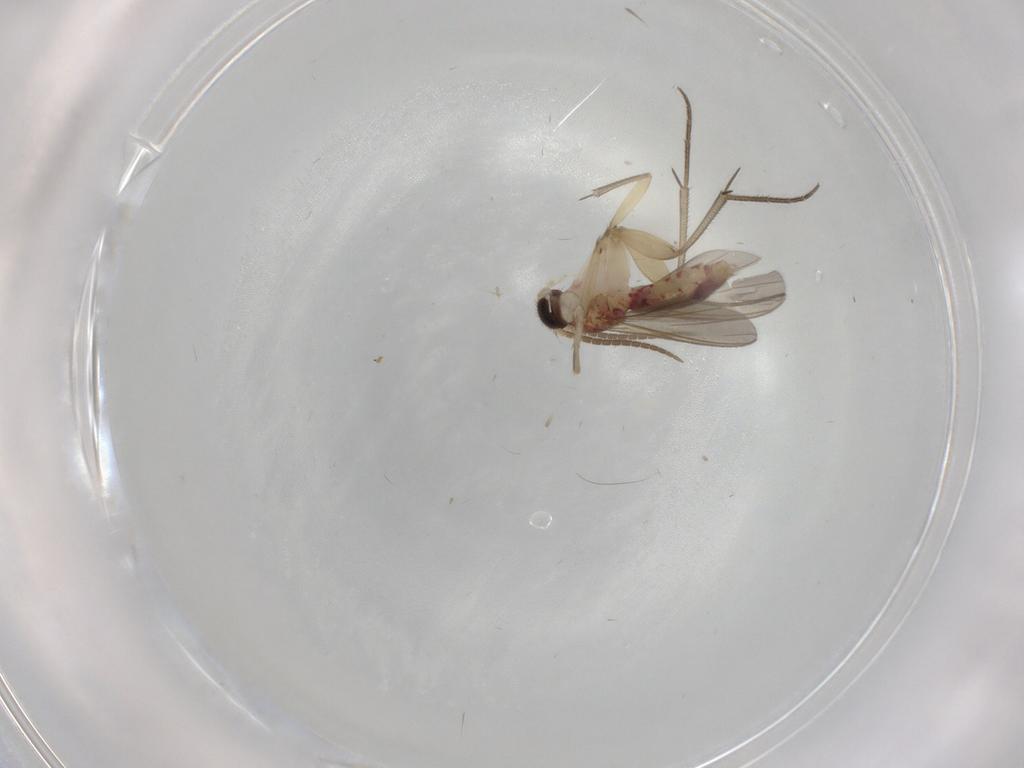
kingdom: Animalia
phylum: Arthropoda
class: Insecta
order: Diptera
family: Mycetophilidae
